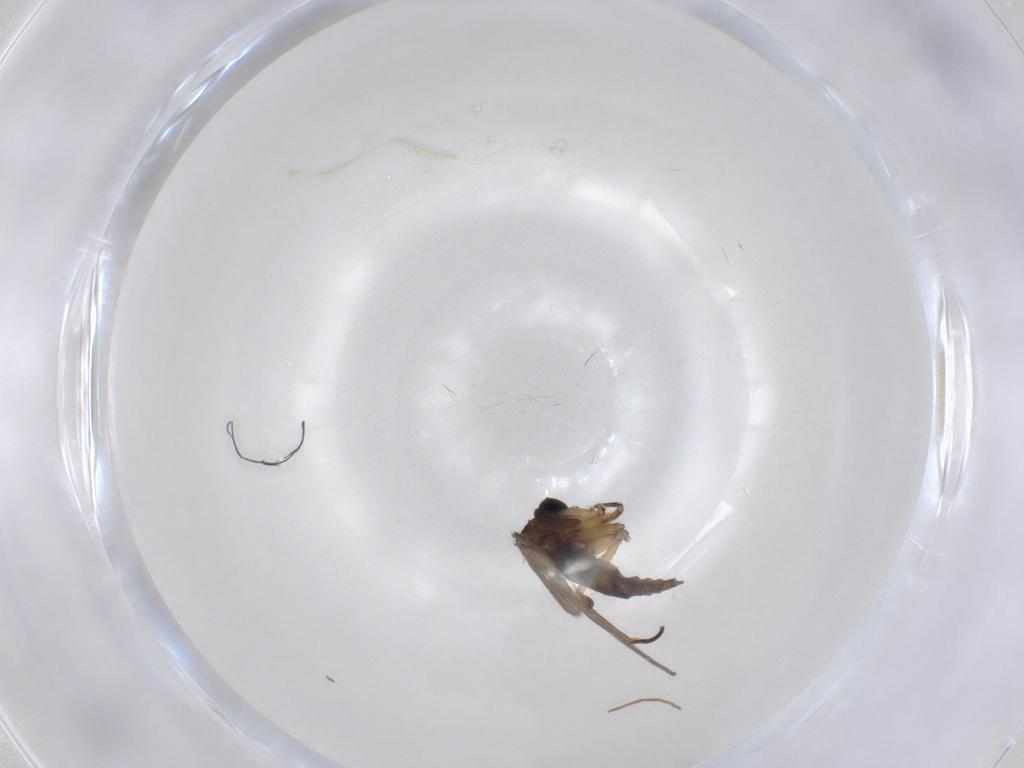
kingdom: Animalia
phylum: Arthropoda
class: Insecta
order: Diptera
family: Sciaridae
